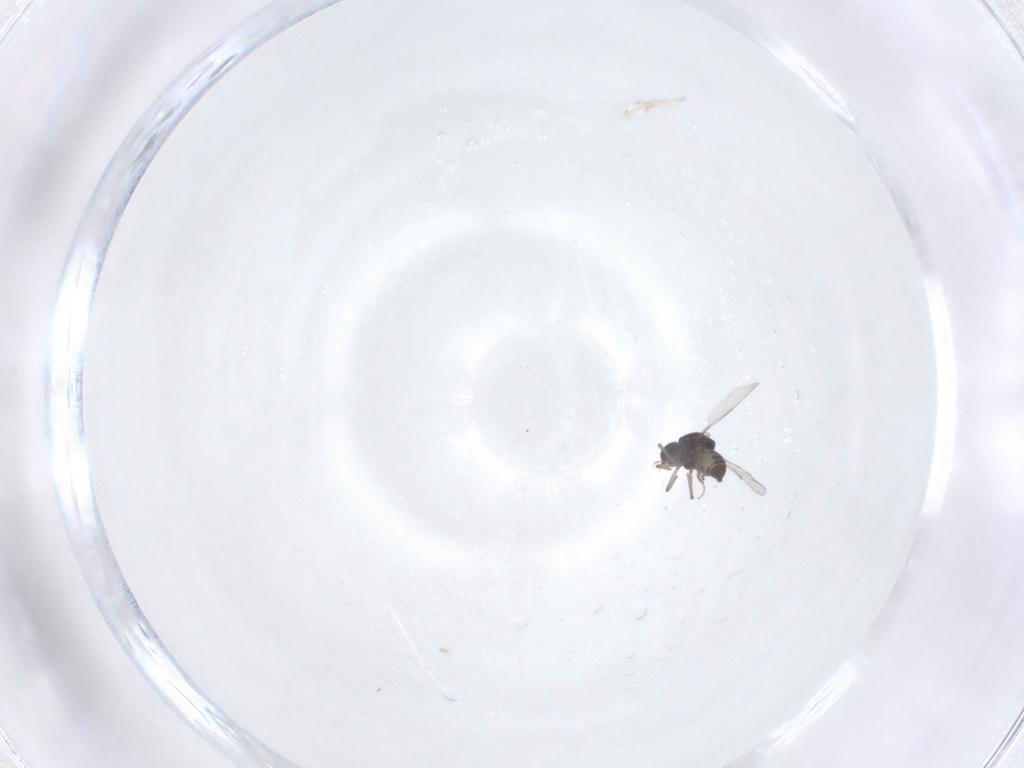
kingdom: Animalia
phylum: Arthropoda
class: Insecta
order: Diptera
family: Ceratopogonidae
